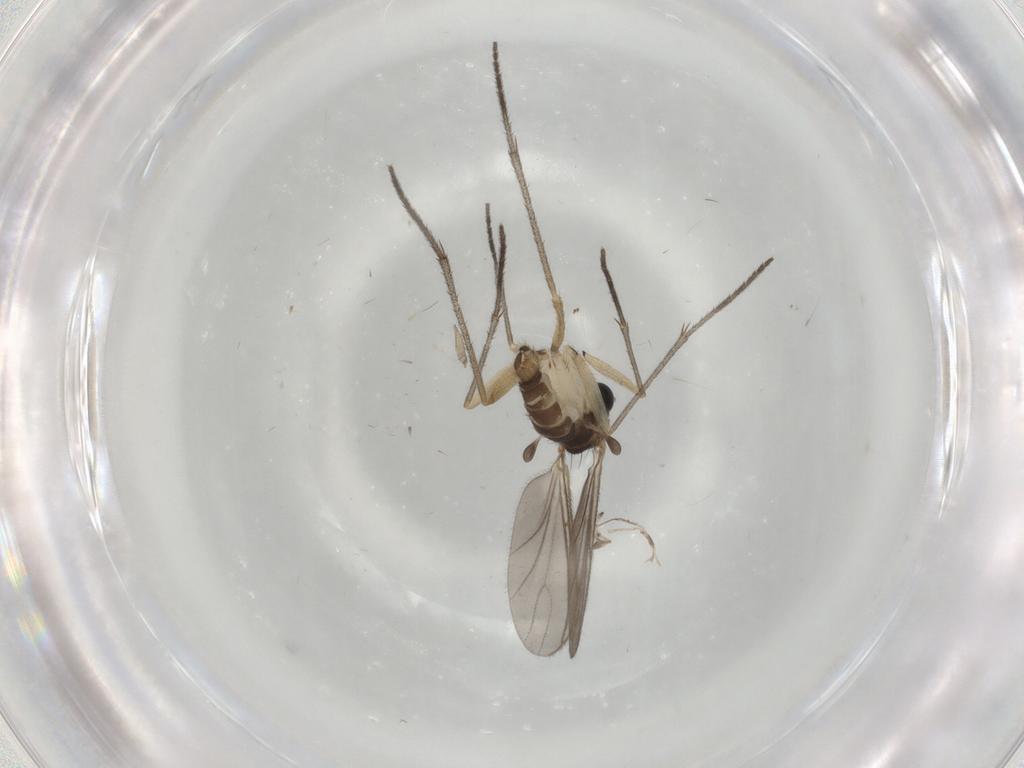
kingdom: Animalia
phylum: Arthropoda
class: Insecta
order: Diptera
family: Sciaridae
